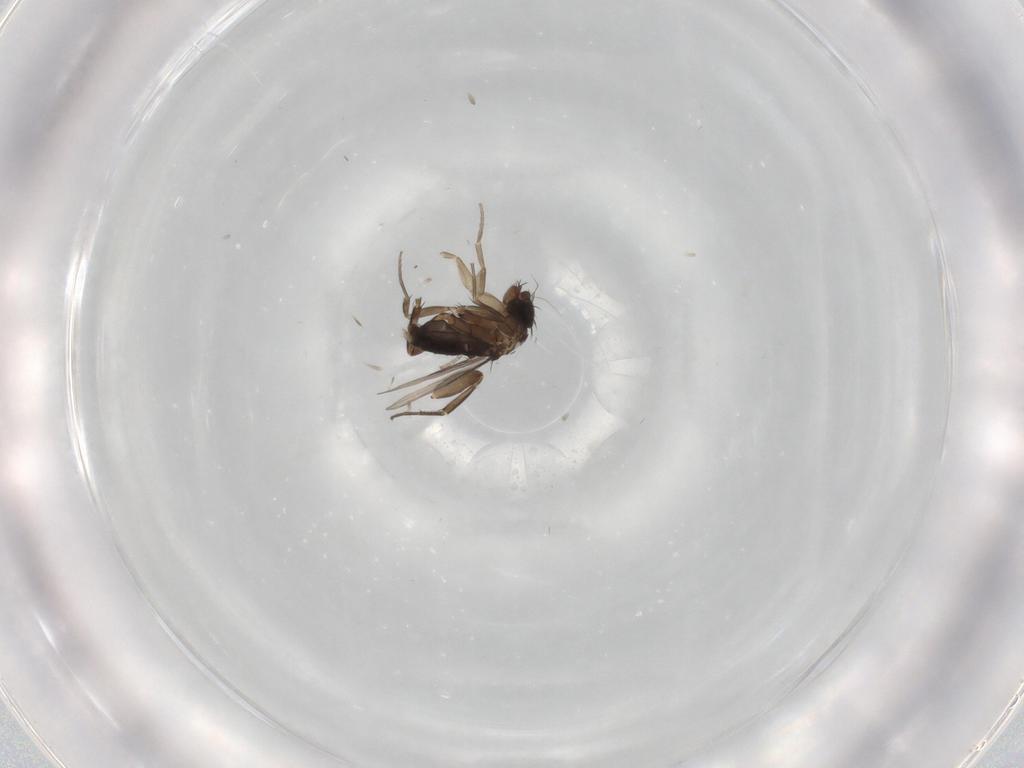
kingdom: Animalia
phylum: Arthropoda
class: Insecta
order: Diptera
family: Phoridae
